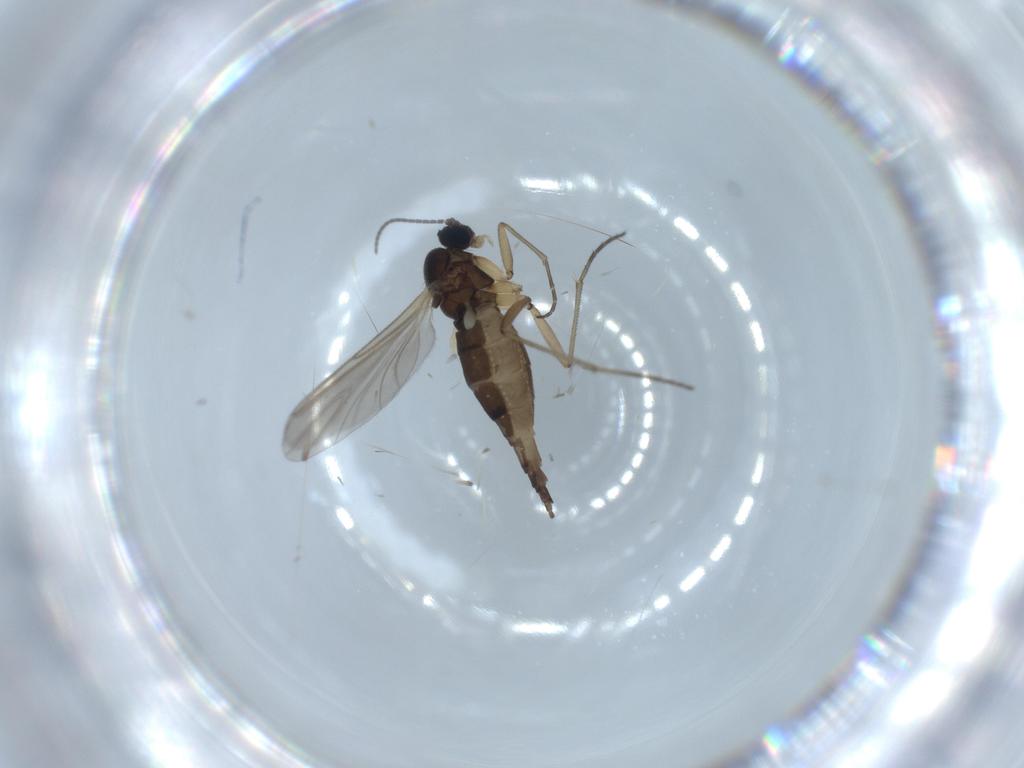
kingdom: Animalia
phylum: Arthropoda
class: Insecta
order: Diptera
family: Sciaridae
